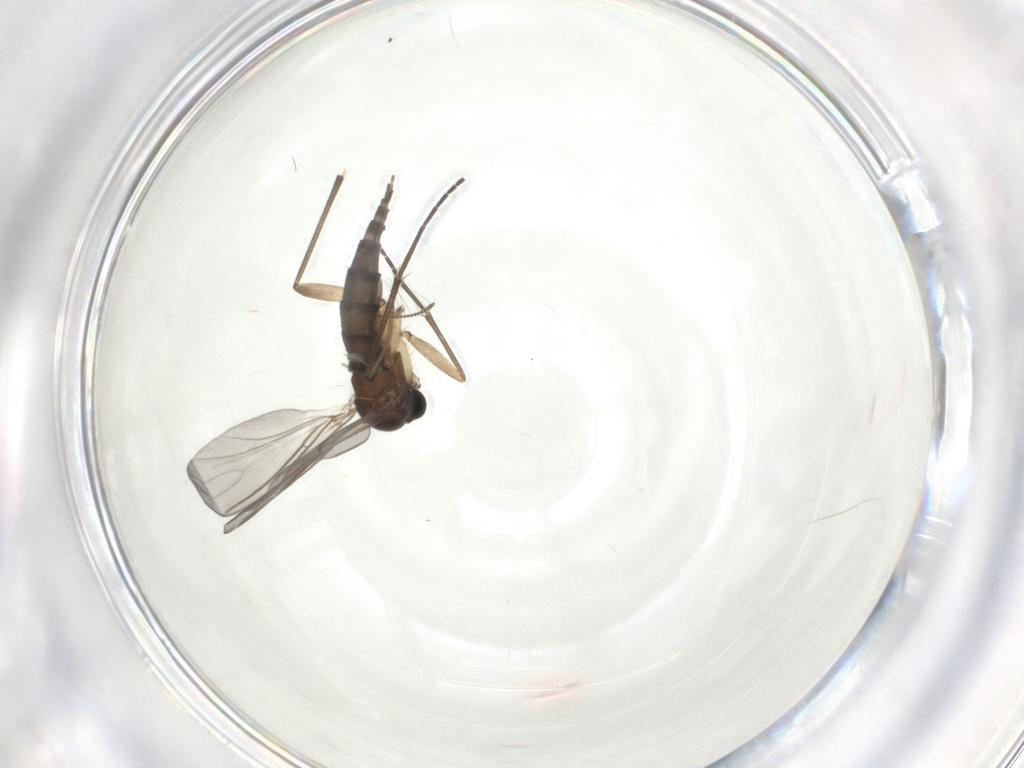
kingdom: Animalia
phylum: Arthropoda
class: Insecta
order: Diptera
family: Sciaridae
